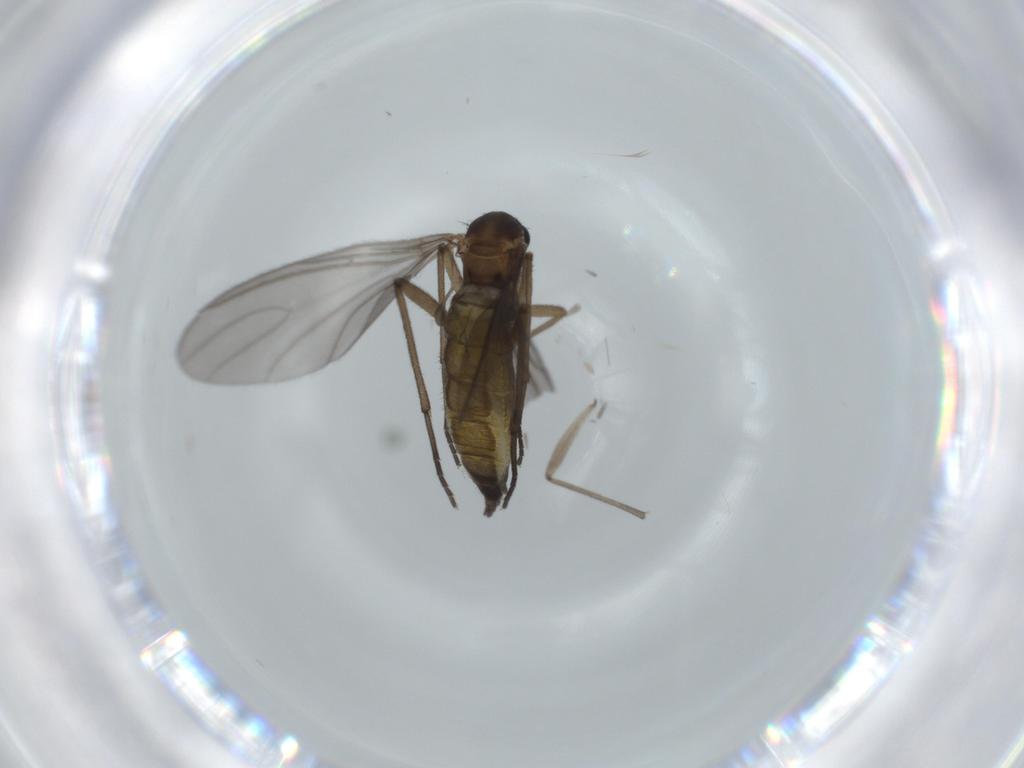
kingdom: Animalia
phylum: Arthropoda
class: Insecta
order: Diptera
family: Sciaridae
